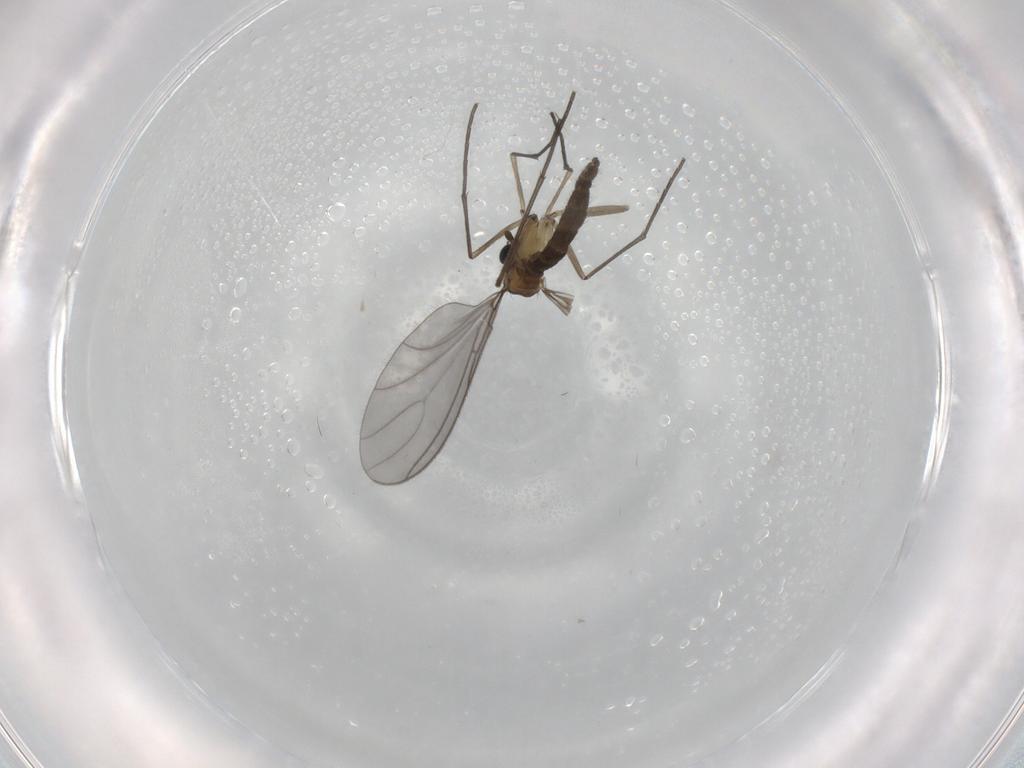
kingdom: Animalia
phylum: Arthropoda
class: Insecta
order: Diptera
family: Sciaridae
